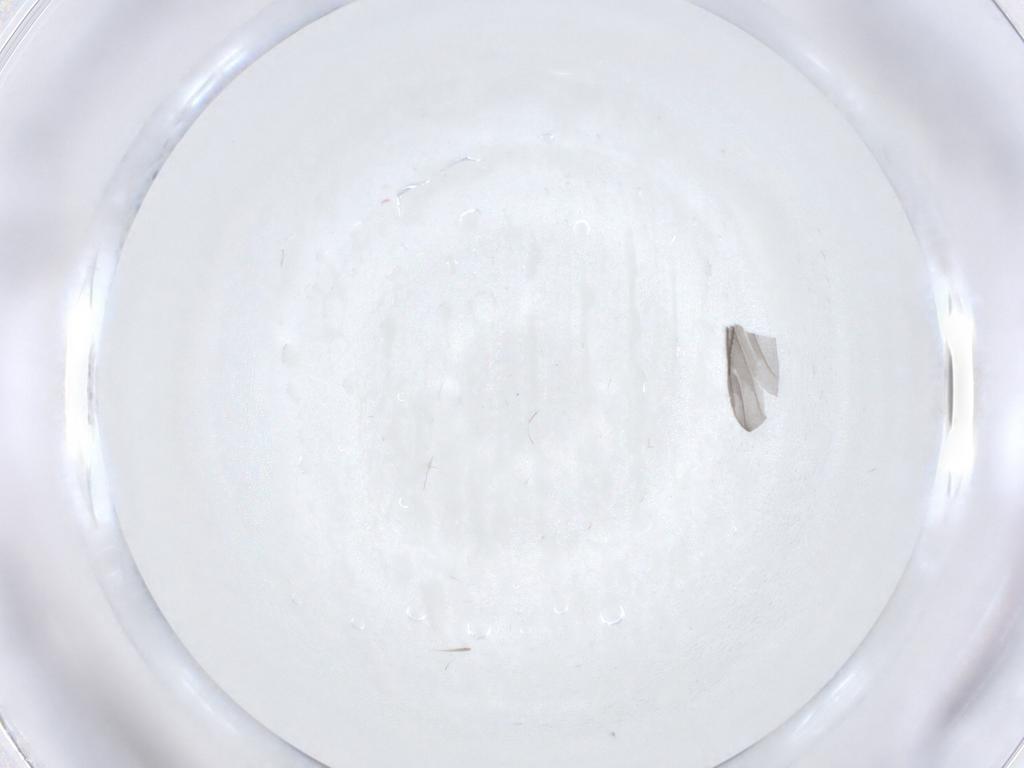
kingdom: Animalia
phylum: Arthropoda
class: Insecta
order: Diptera
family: Phoridae
